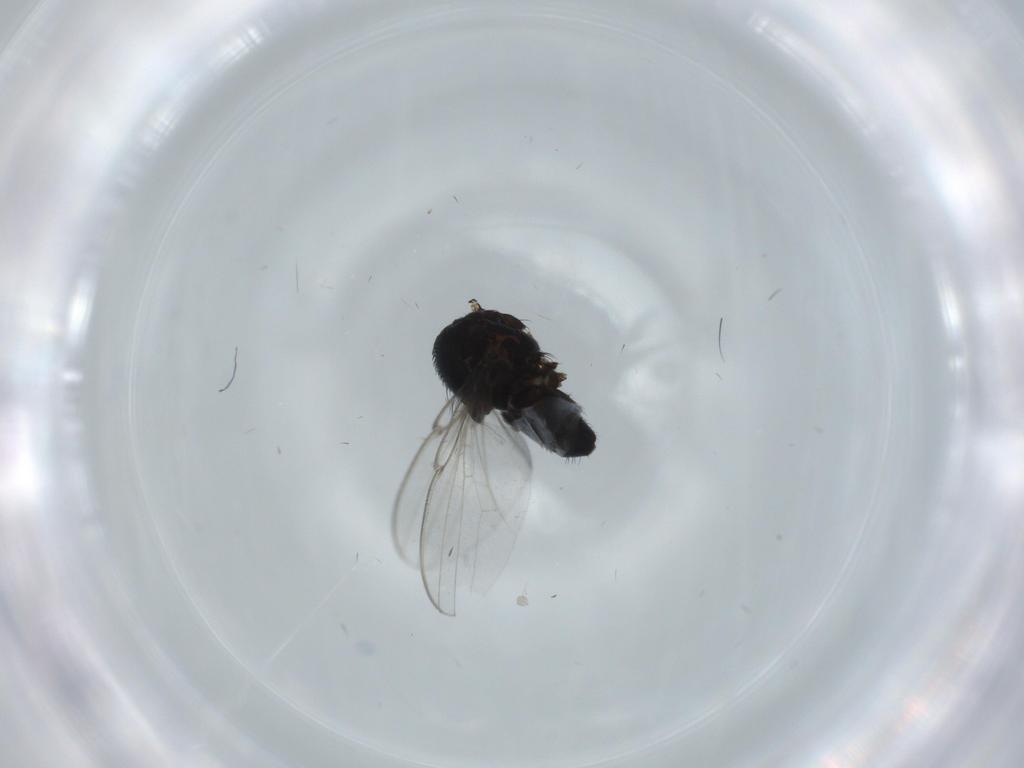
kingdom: Animalia
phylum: Arthropoda
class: Insecta
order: Diptera
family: Milichiidae
